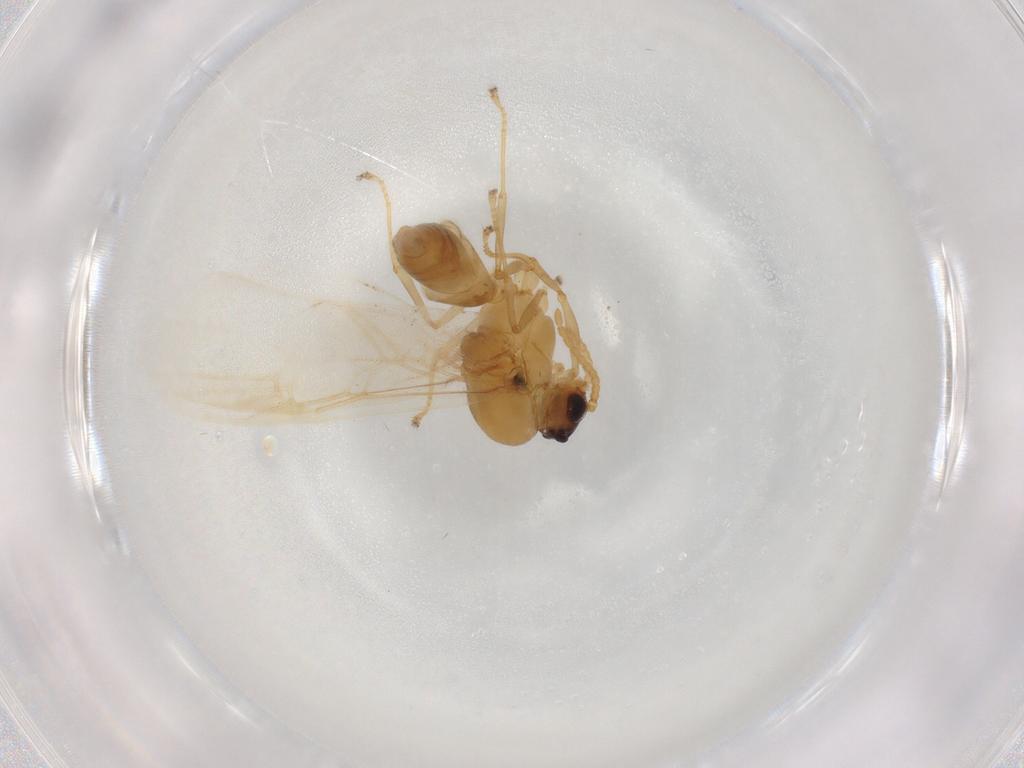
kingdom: Animalia
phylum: Arthropoda
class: Insecta
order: Hymenoptera
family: Formicidae
